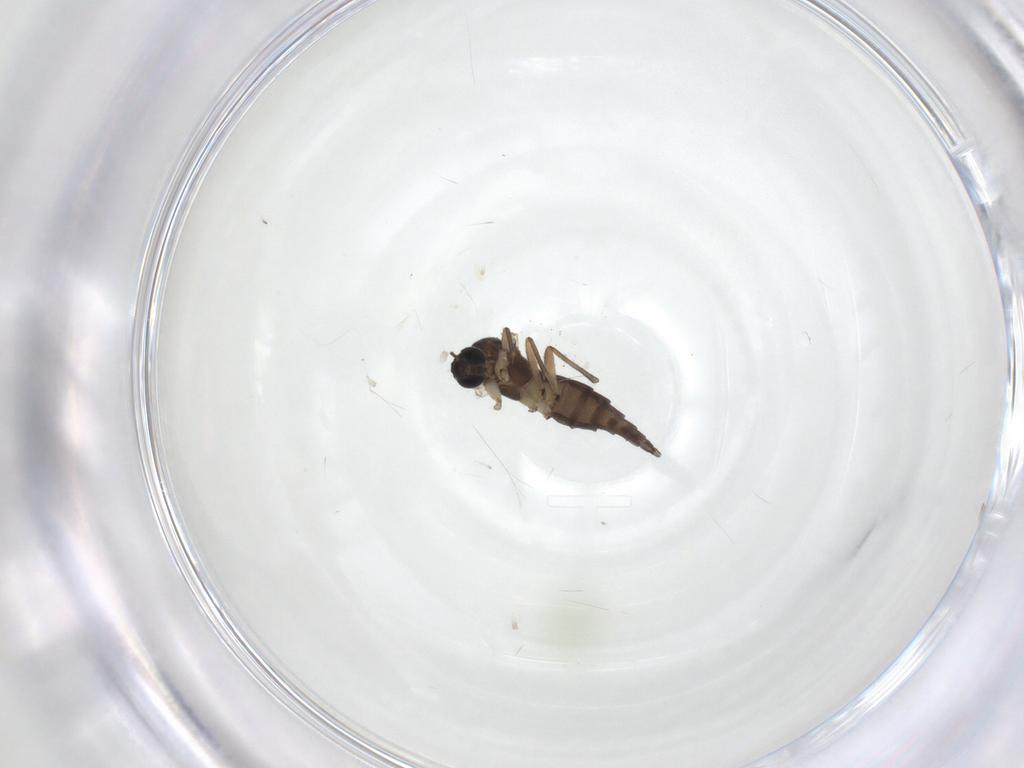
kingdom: Animalia
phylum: Arthropoda
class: Insecta
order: Diptera
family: Sciaridae
